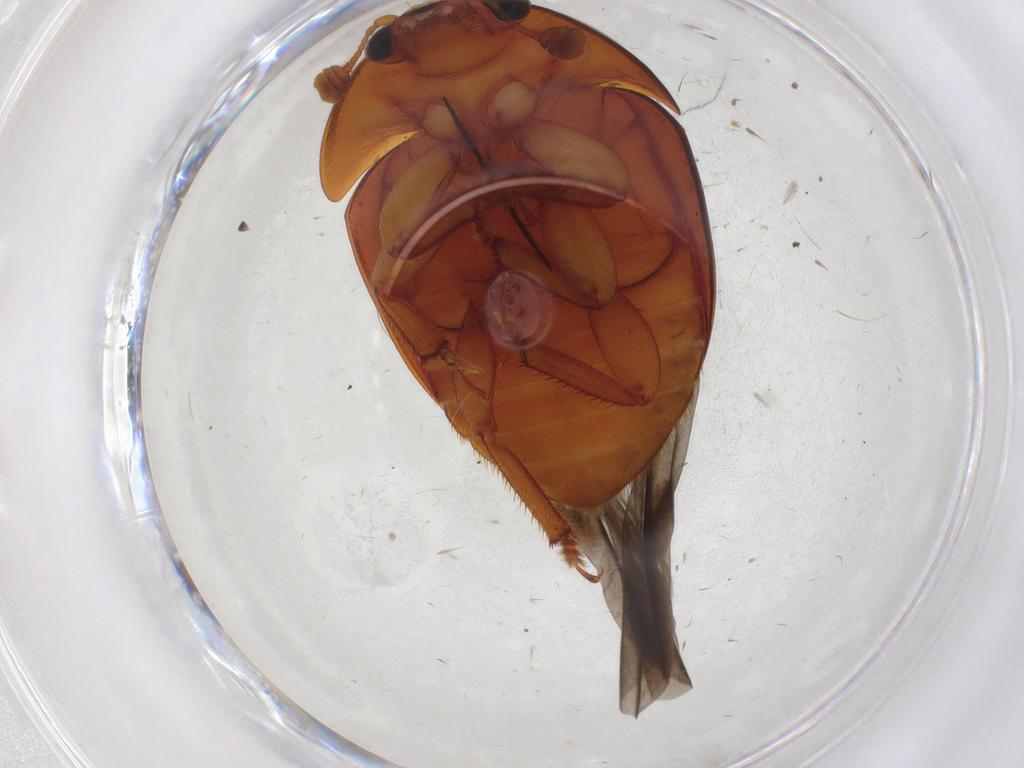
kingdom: Animalia
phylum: Arthropoda
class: Insecta
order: Coleoptera
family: Nitidulidae
